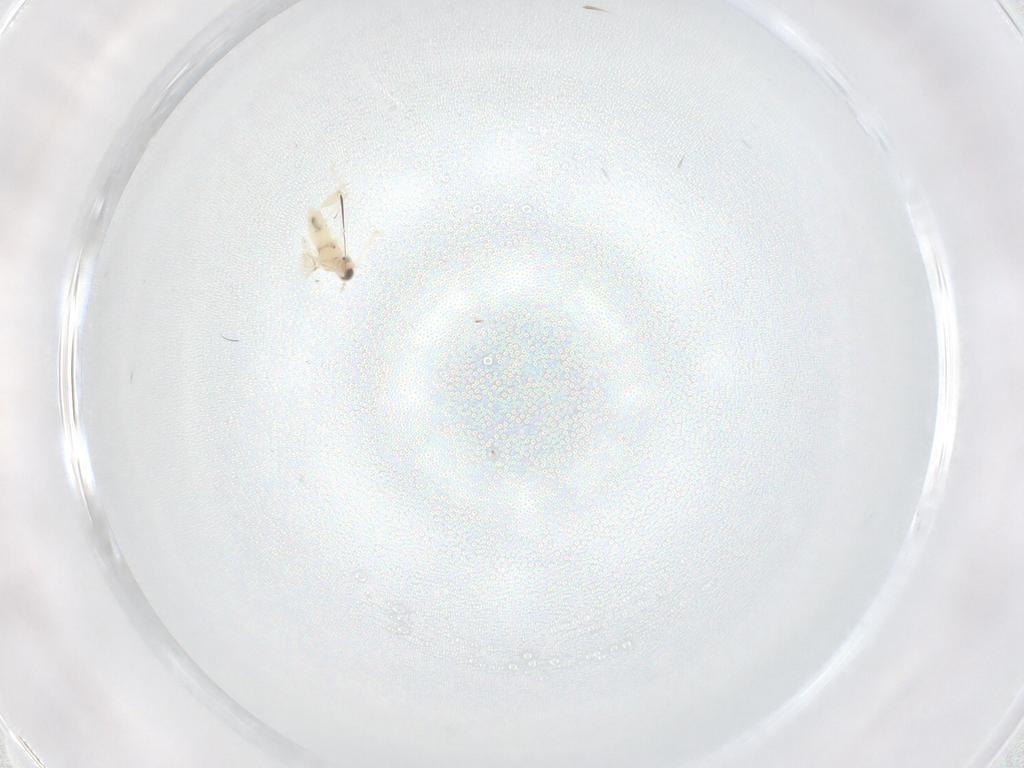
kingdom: Animalia
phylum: Arthropoda
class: Insecta
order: Diptera
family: Cecidomyiidae
